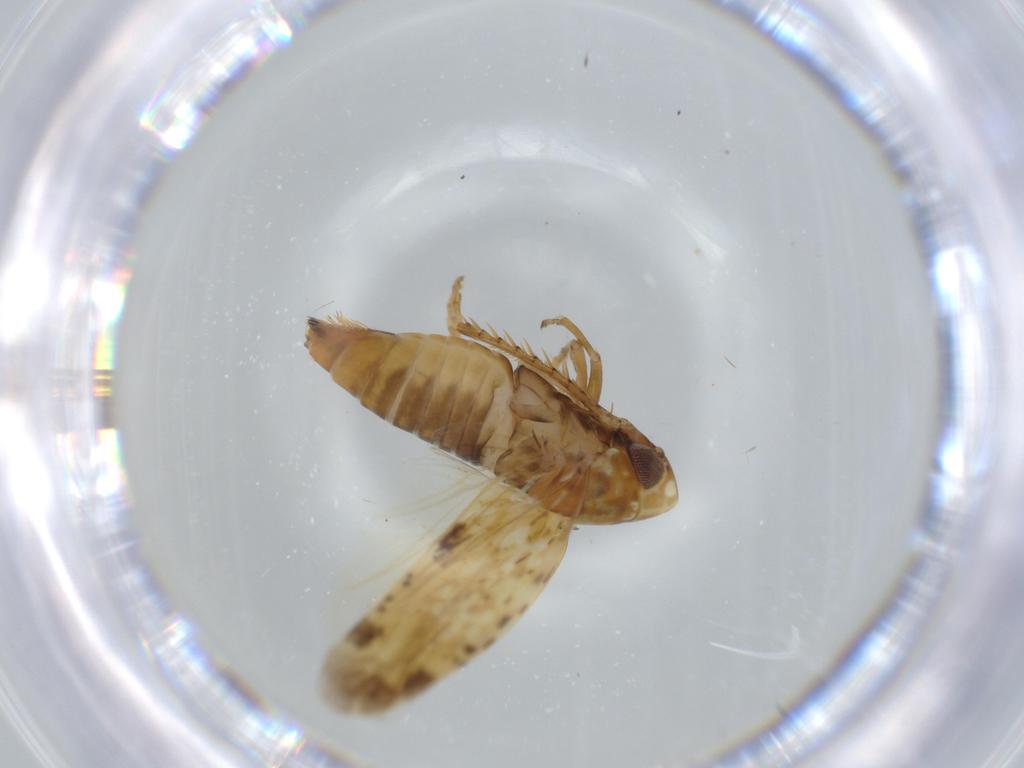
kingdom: Animalia
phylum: Arthropoda
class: Insecta
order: Hemiptera
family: Cicadellidae
